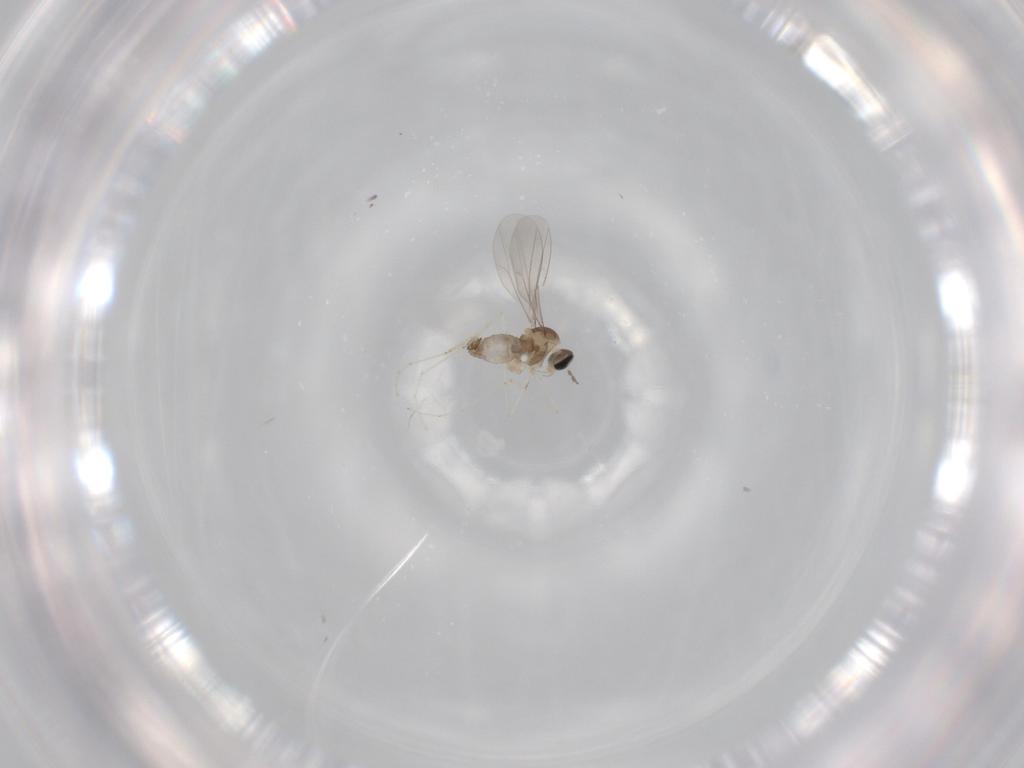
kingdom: Animalia
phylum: Arthropoda
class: Insecta
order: Diptera
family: Cecidomyiidae
